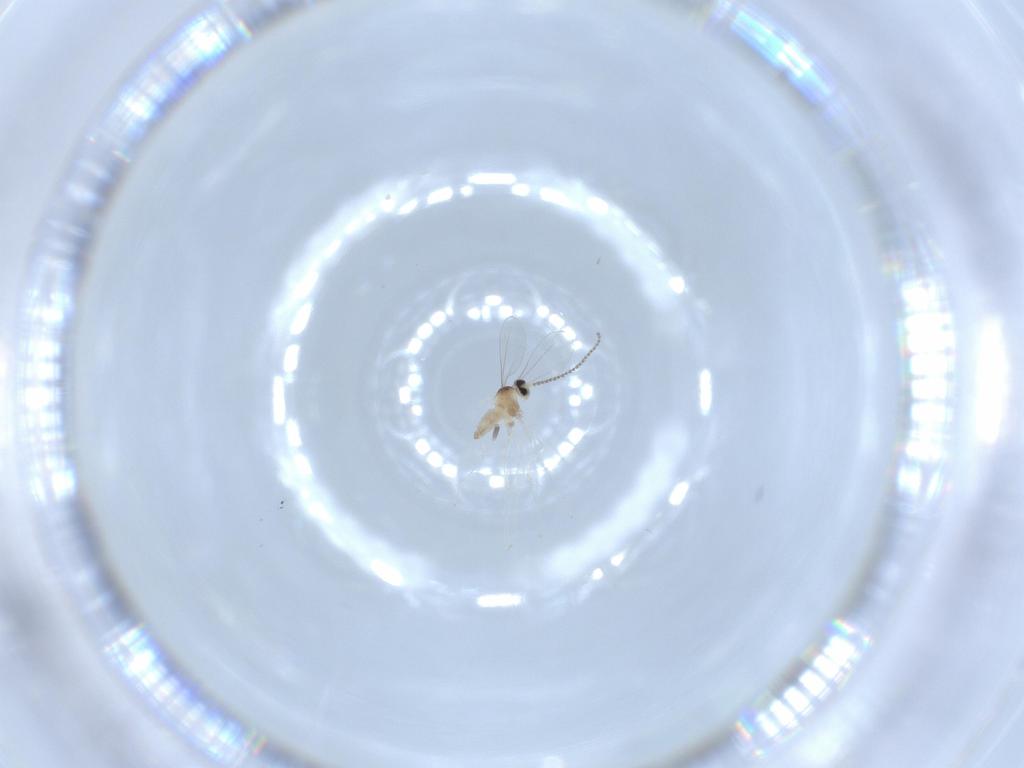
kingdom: Animalia
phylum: Arthropoda
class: Insecta
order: Diptera
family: Cecidomyiidae
